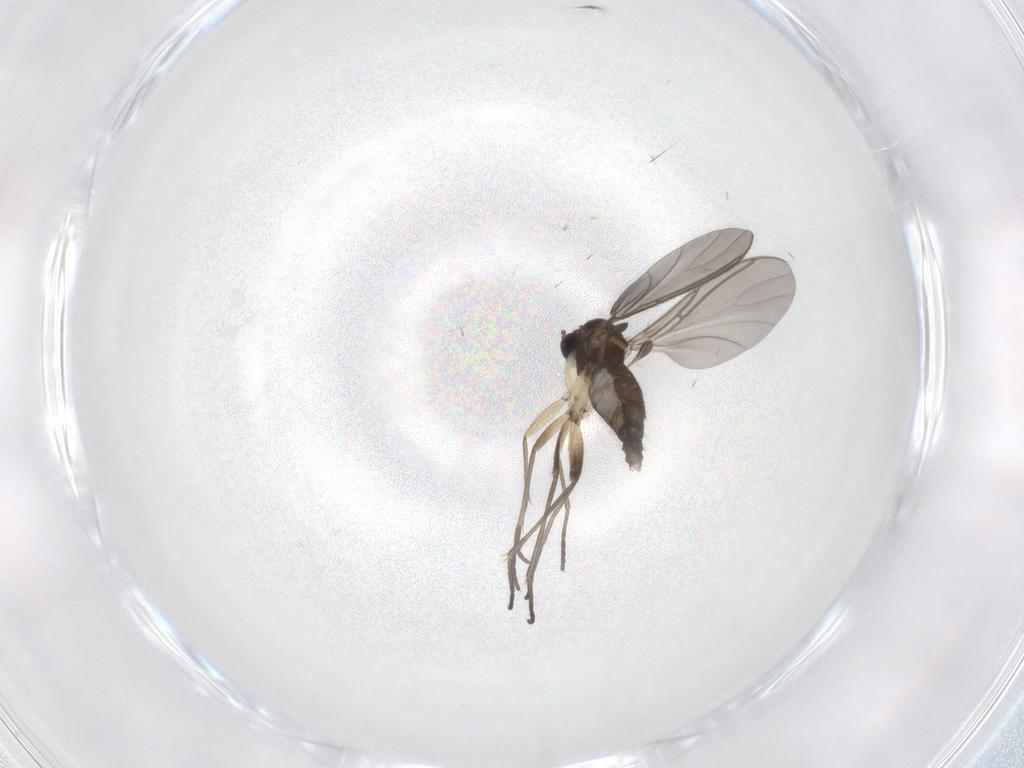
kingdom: Animalia
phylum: Arthropoda
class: Insecta
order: Diptera
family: Sciaridae
